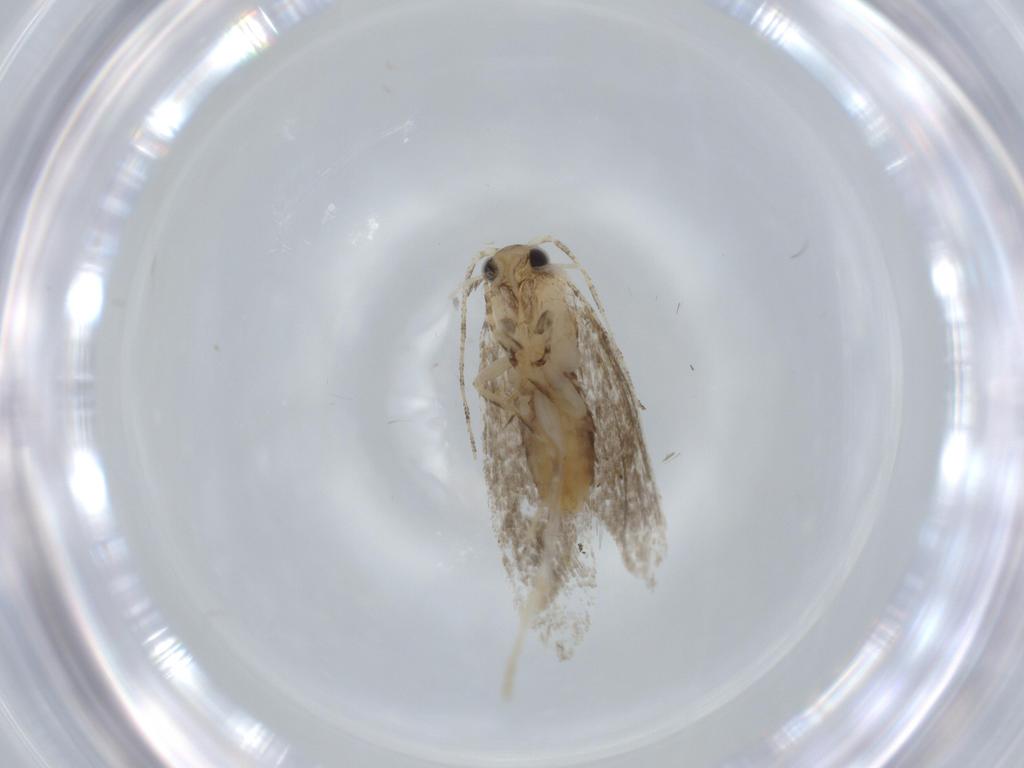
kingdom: Animalia
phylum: Arthropoda
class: Insecta
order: Lepidoptera
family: Tineidae
